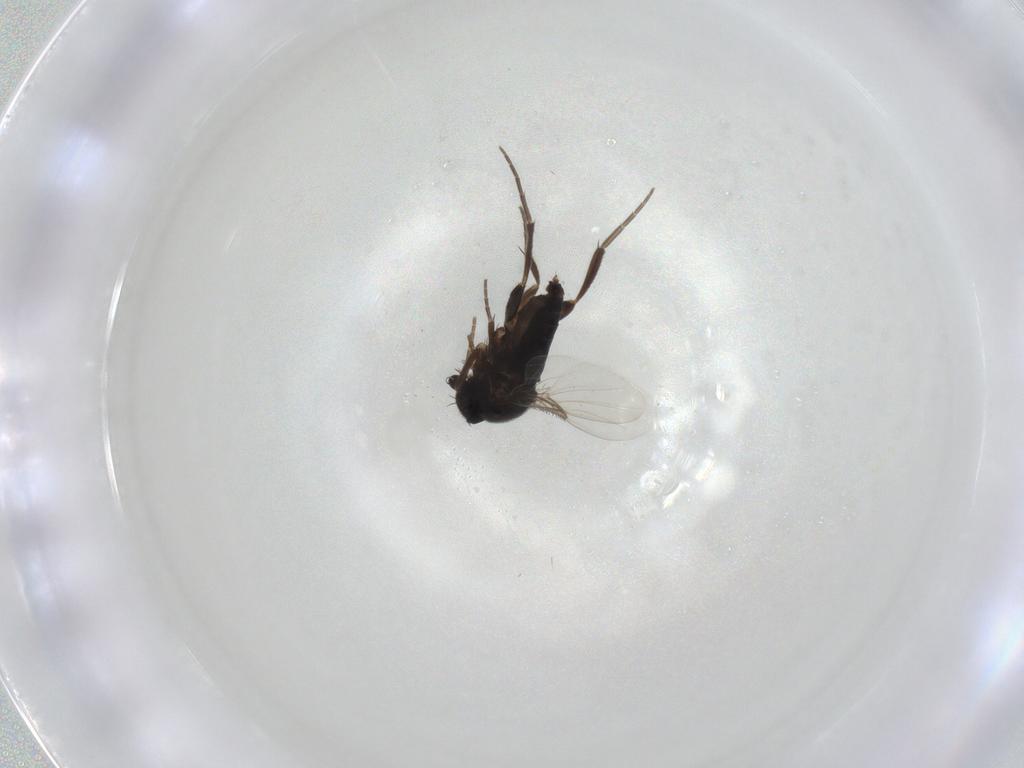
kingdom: Animalia
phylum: Arthropoda
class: Insecta
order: Diptera
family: Phoridae
